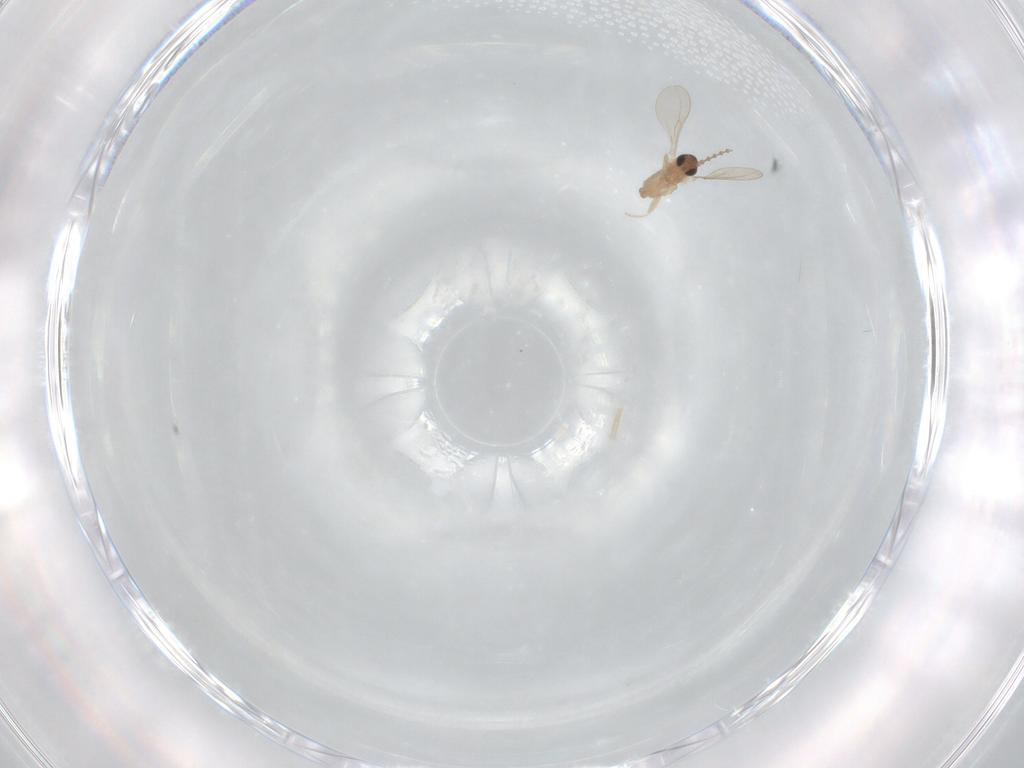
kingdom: Animalia
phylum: Arthropoda
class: Insecta
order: Diptera
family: Cecidomyiidae
